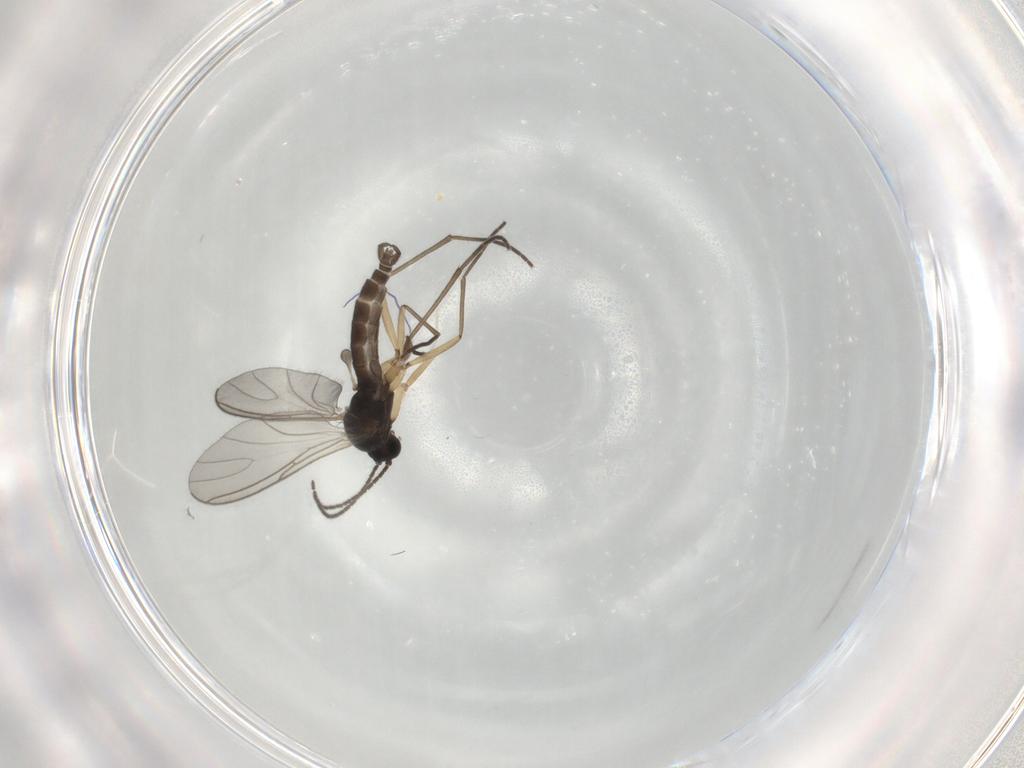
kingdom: Animalia
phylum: Arthropoda
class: Insecta
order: Diptera
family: Sciaridae
